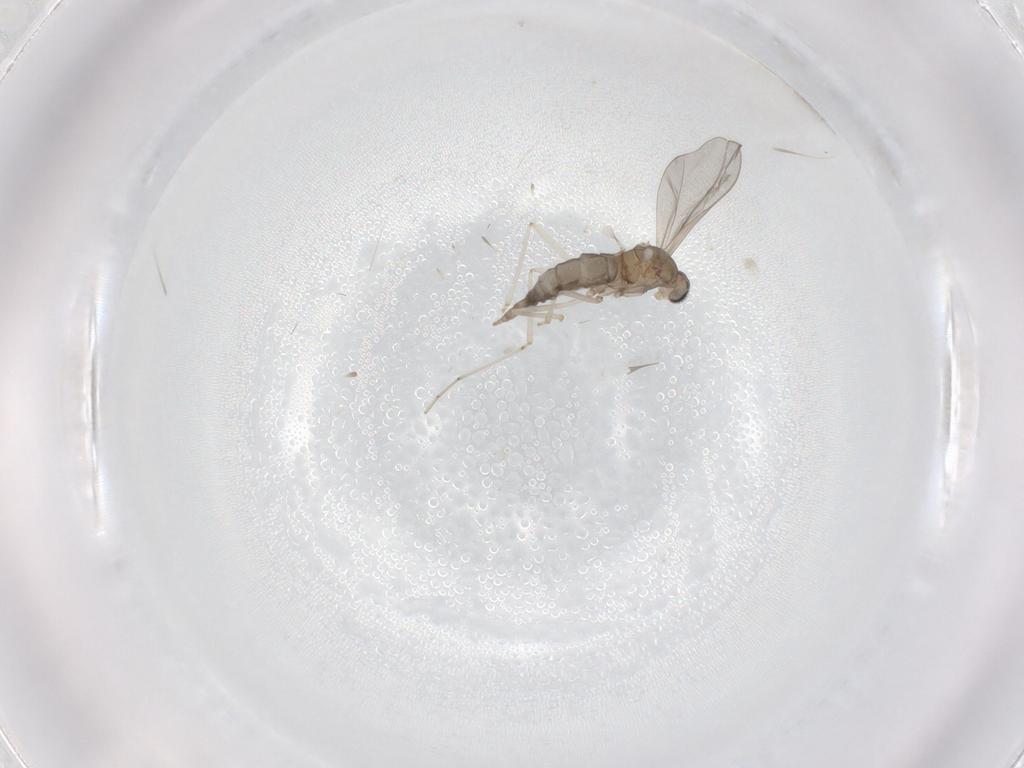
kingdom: Animalia
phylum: Arthropoda
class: Insecta
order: Diptera
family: Cecidomyiidae
